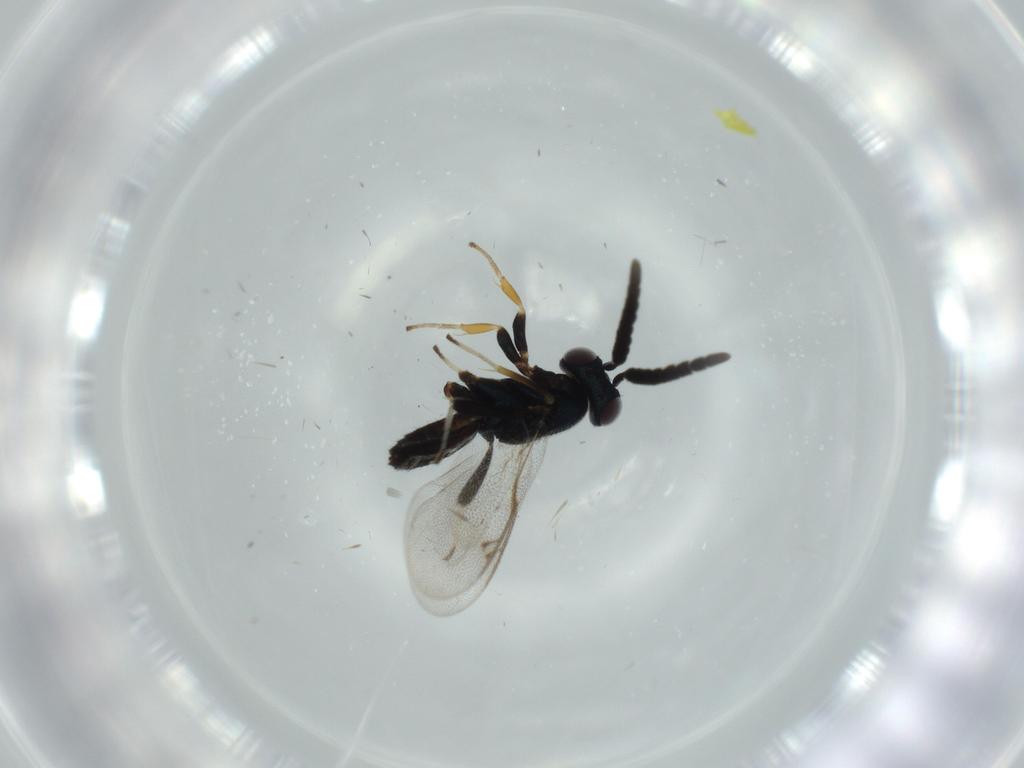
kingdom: Animalia
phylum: Arthropoda
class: Insecta
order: Hymenoptera
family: Eupelmidae
